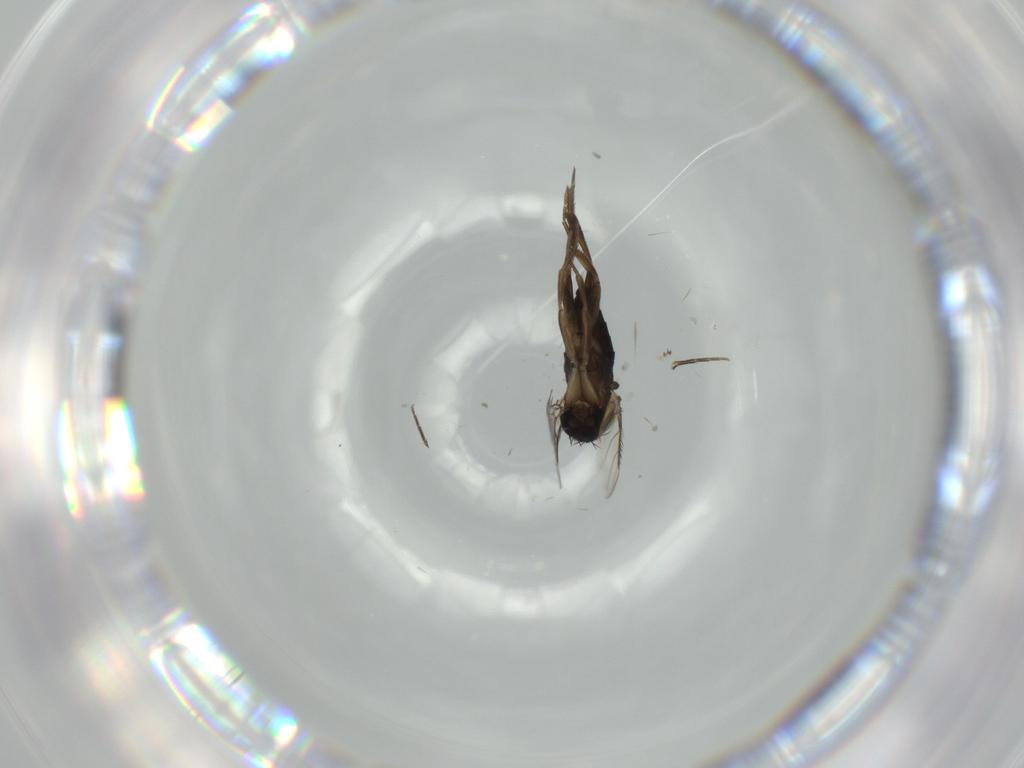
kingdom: Animalia
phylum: Arthropoda
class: Insecta
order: Diptera
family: Phoridae
